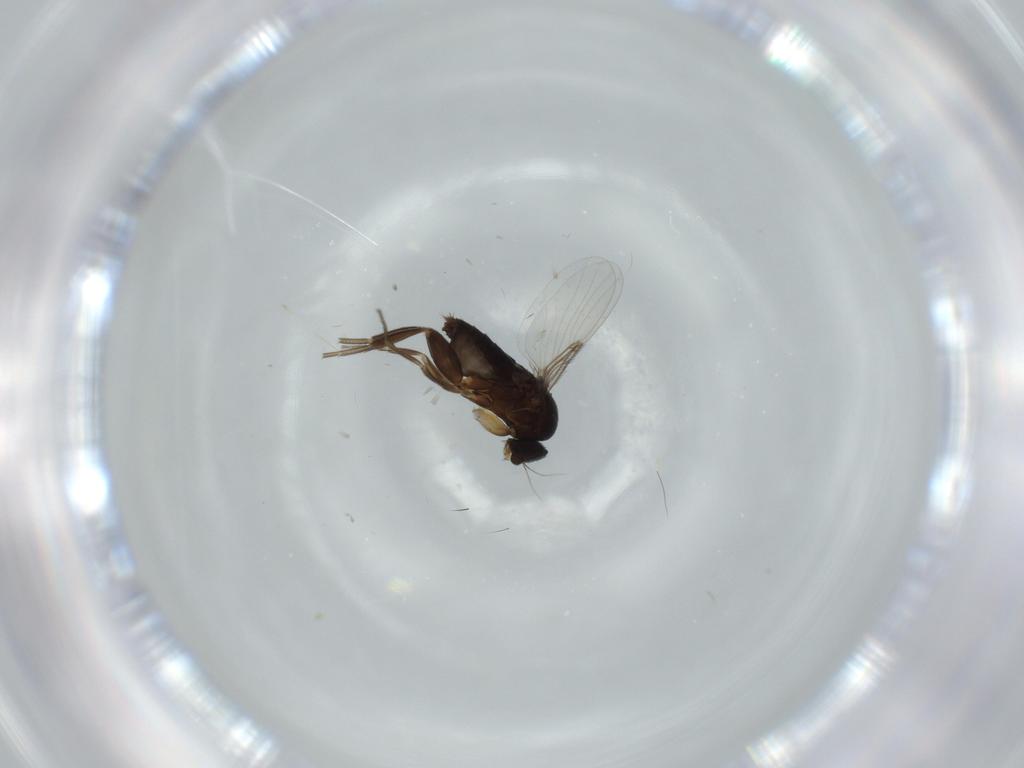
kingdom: Animalia
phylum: Arthropoda
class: Insecta
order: Diptera
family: Phoridae
